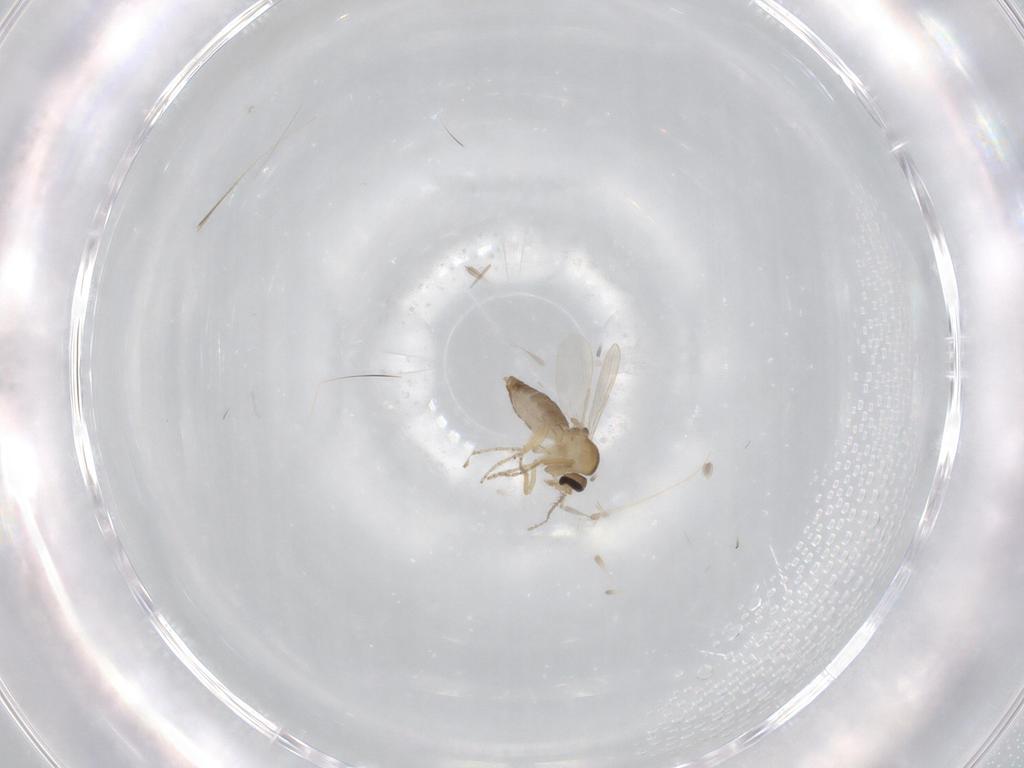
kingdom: Animalia
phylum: Arthropoda
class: Insecta
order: Diptera
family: Ceratopogonidae
